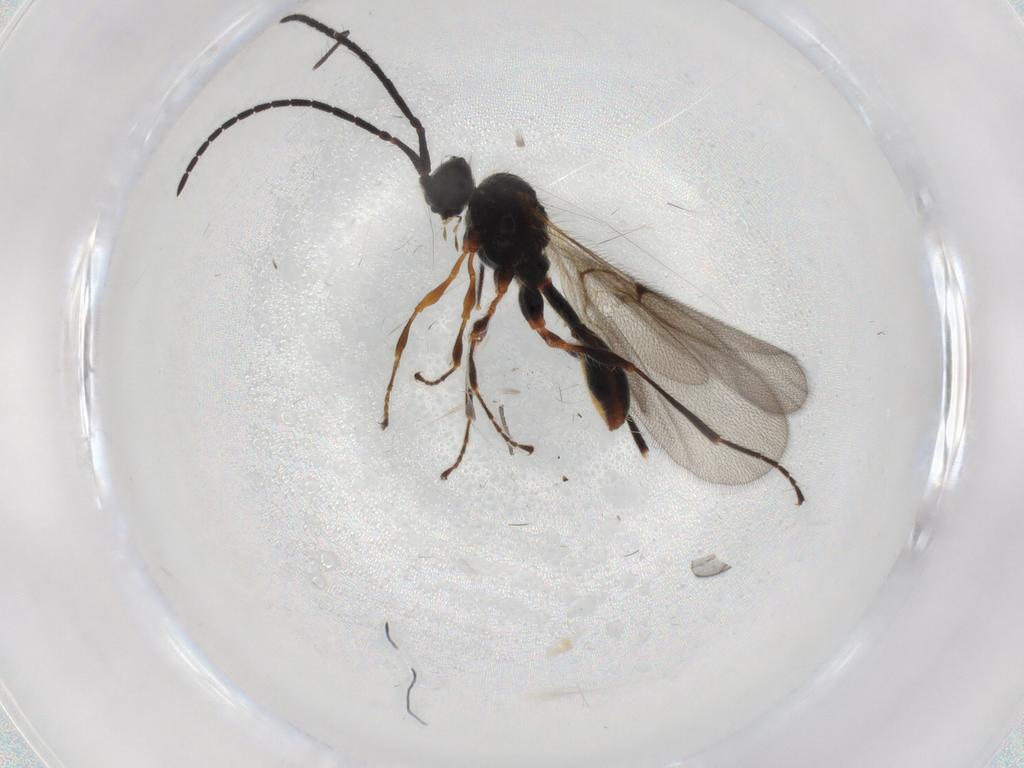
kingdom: Animalia
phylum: Arthropoda
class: Insecta
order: Hymenoptera
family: Diapriidae
